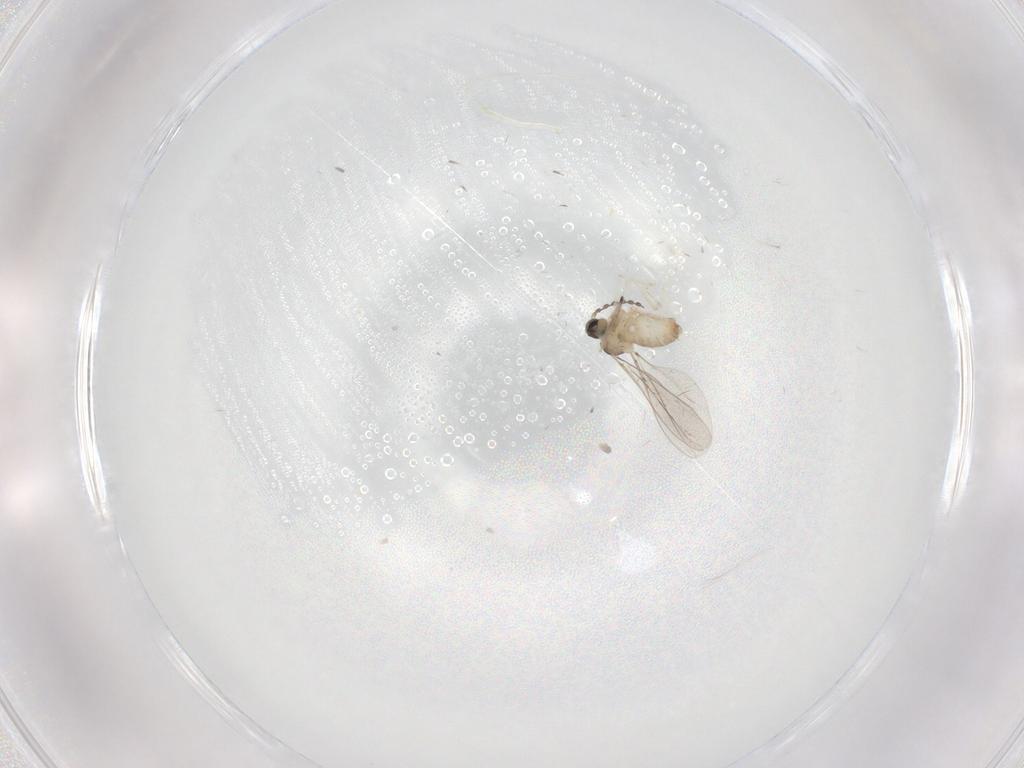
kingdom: Animalia
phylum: Arthropoda
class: Insecta
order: Diptera
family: Cecidomyiidae
